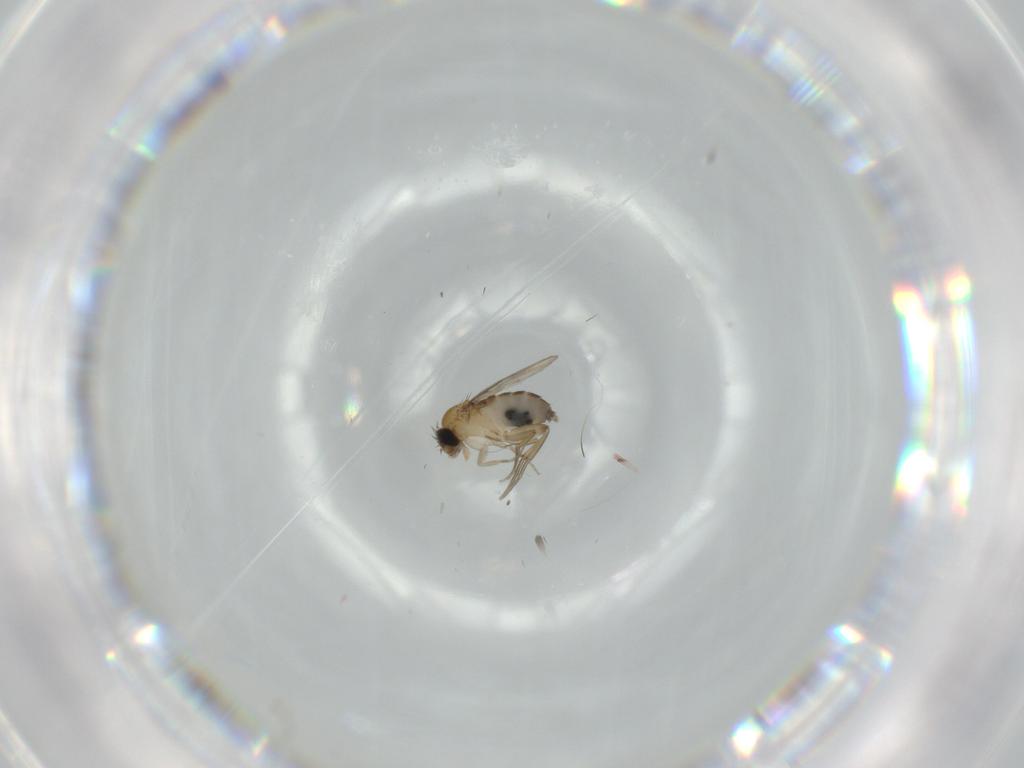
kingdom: Animalia
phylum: Arthropoda
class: Insecta
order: Diptera
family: Phoridae
